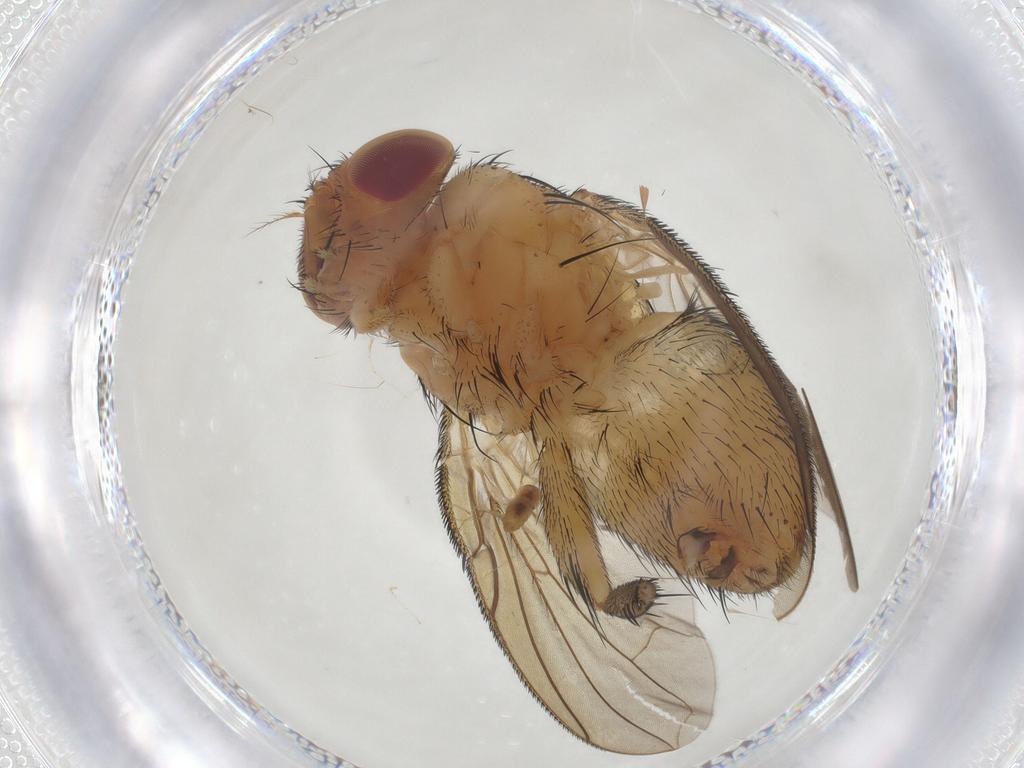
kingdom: Animalia
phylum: Arthropoda
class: Insecta
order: Diptera
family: Calliphoridae
